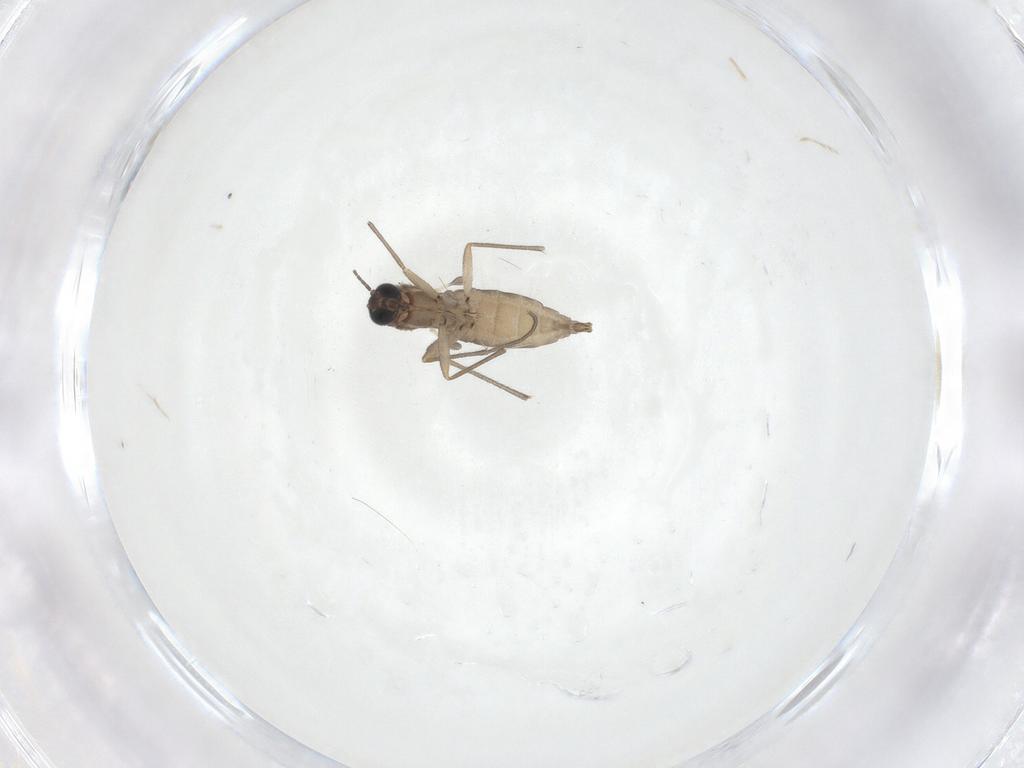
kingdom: Animalia
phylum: Arthropoda
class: Insecta
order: Diptera
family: Sciaridae
